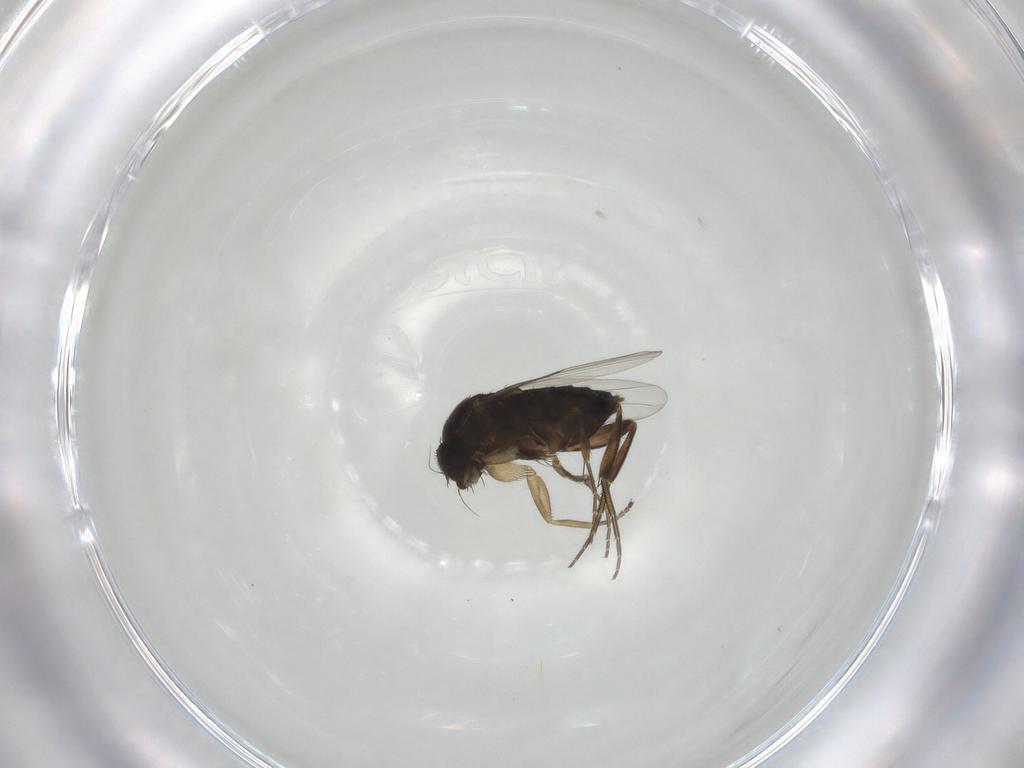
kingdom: Animalia
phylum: Arthropoda
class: Insecta
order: Diptera
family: Phoridae
